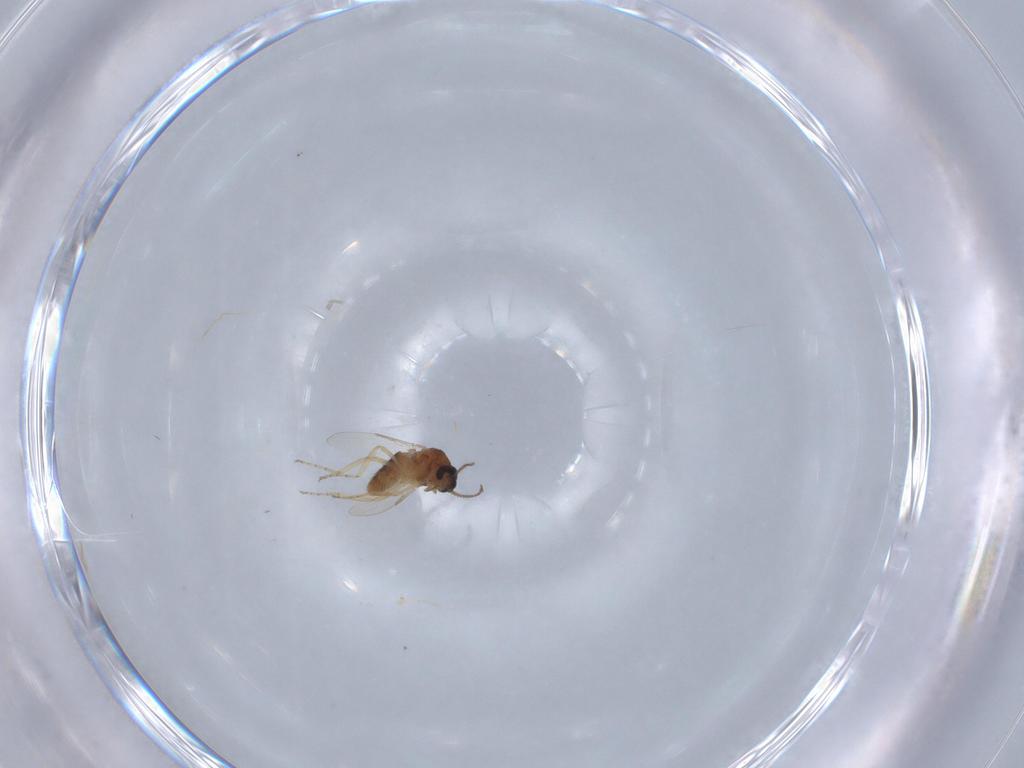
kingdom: Animalia
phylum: Arthropoda
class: Insecta
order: Diptera
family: Ceratopogonidae
